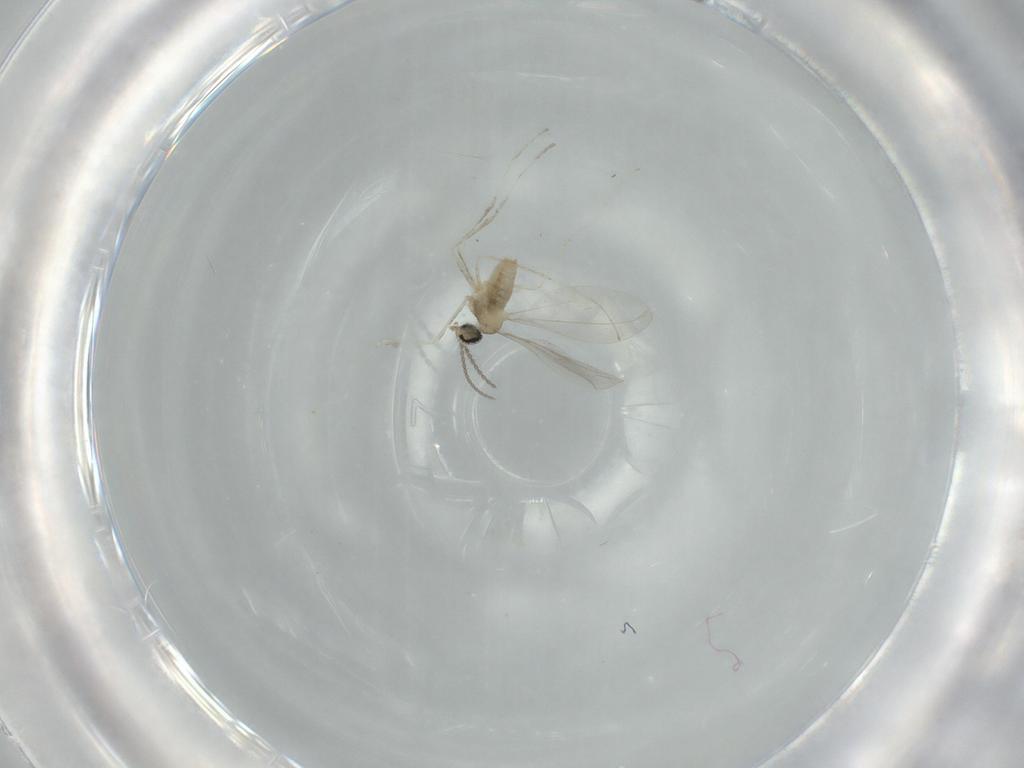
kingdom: Animalia
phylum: Arthropoda
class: Insecta
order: Diptera
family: Cecidomyiidae
